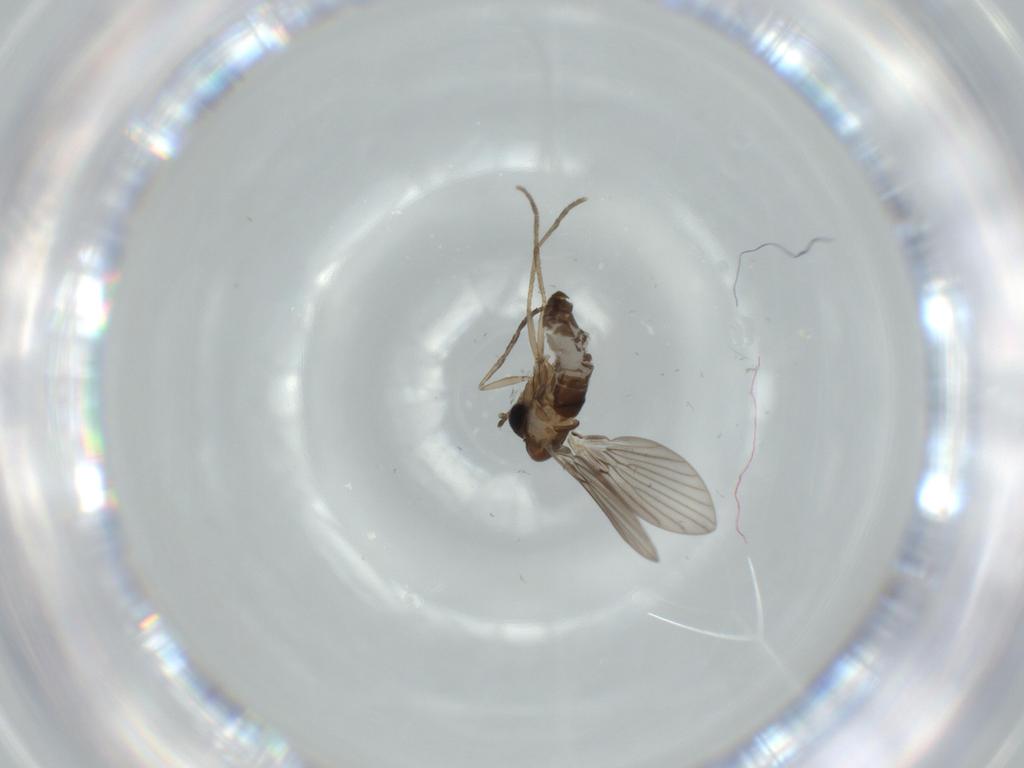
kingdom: Animalia
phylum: Arthropoda
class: Insecta
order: Diptera
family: Psychodidae
